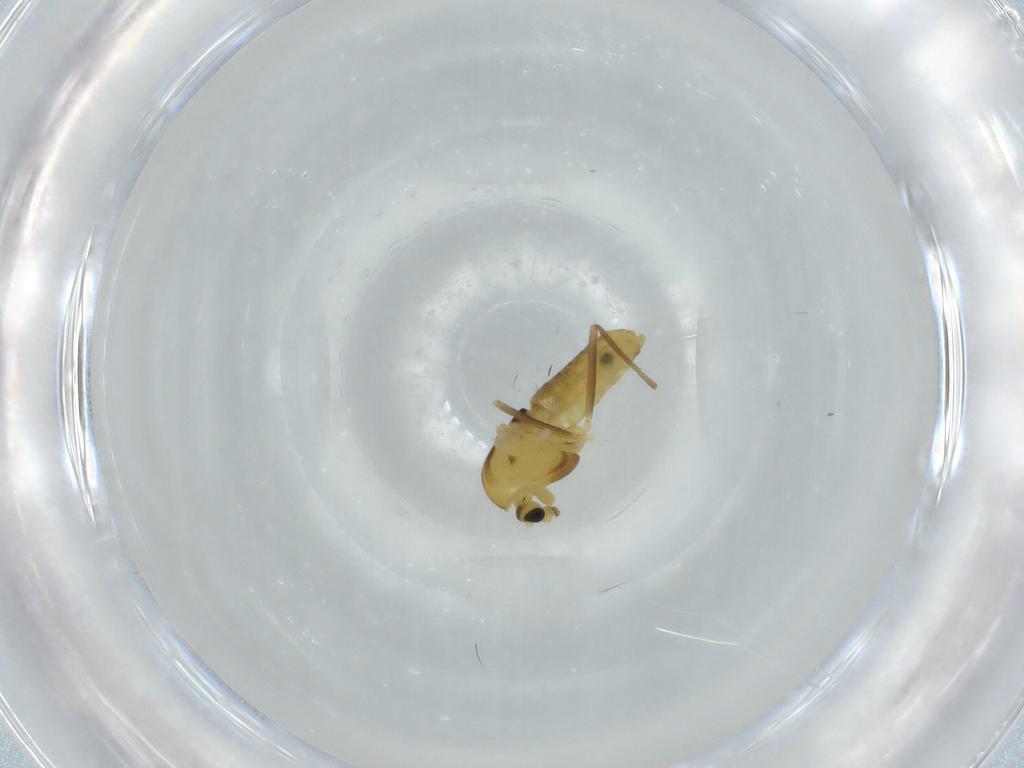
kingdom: Animalia
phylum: Arthropoda
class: Insecta
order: Diptera
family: Chironomidae
